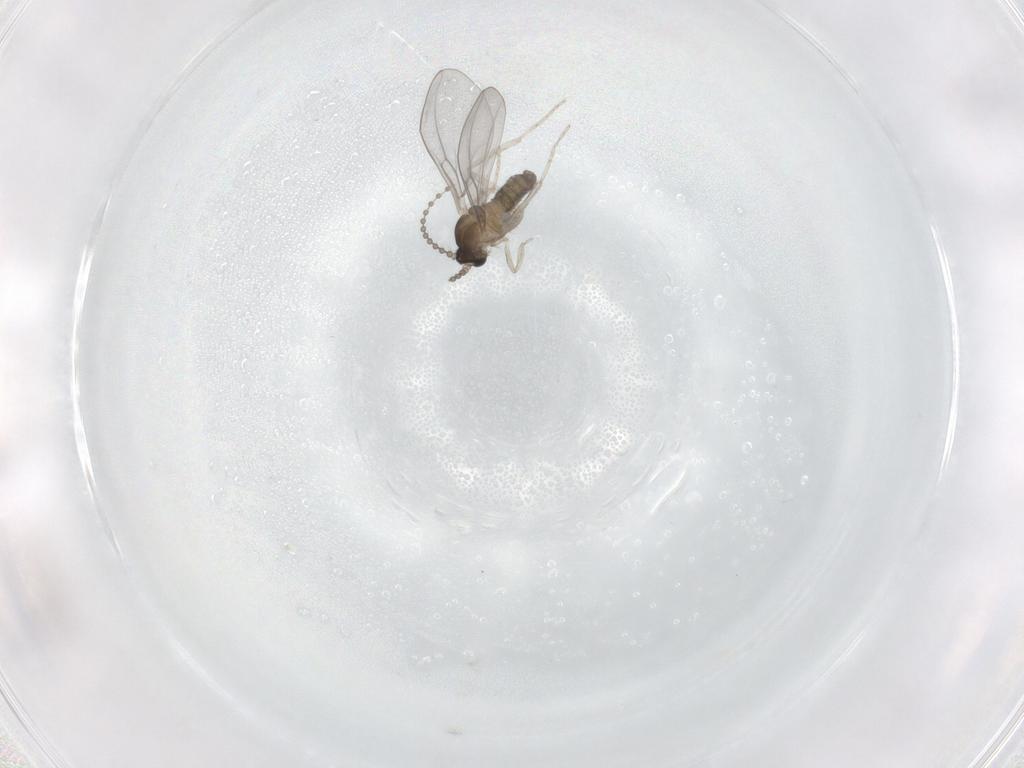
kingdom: Animalia
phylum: Arthropoda
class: Insecta
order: Diptera
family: Cecidomyiidae
